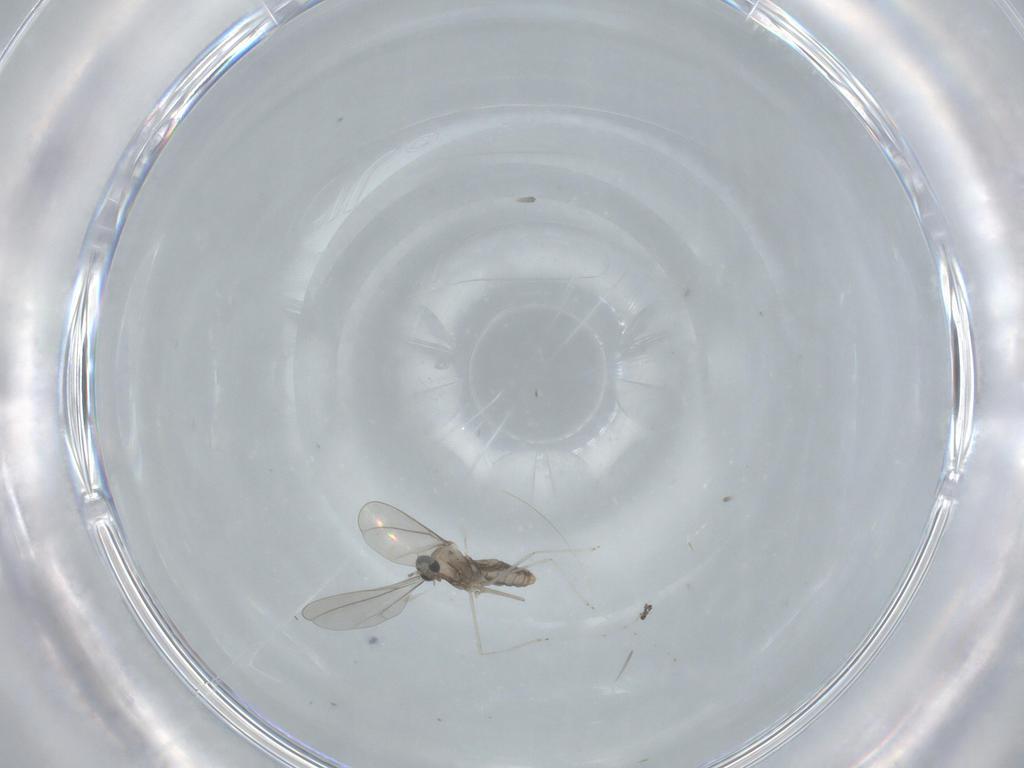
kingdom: Animalia
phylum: Arthropoda
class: Insecta
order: Diptera
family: Cecidomyiidae
